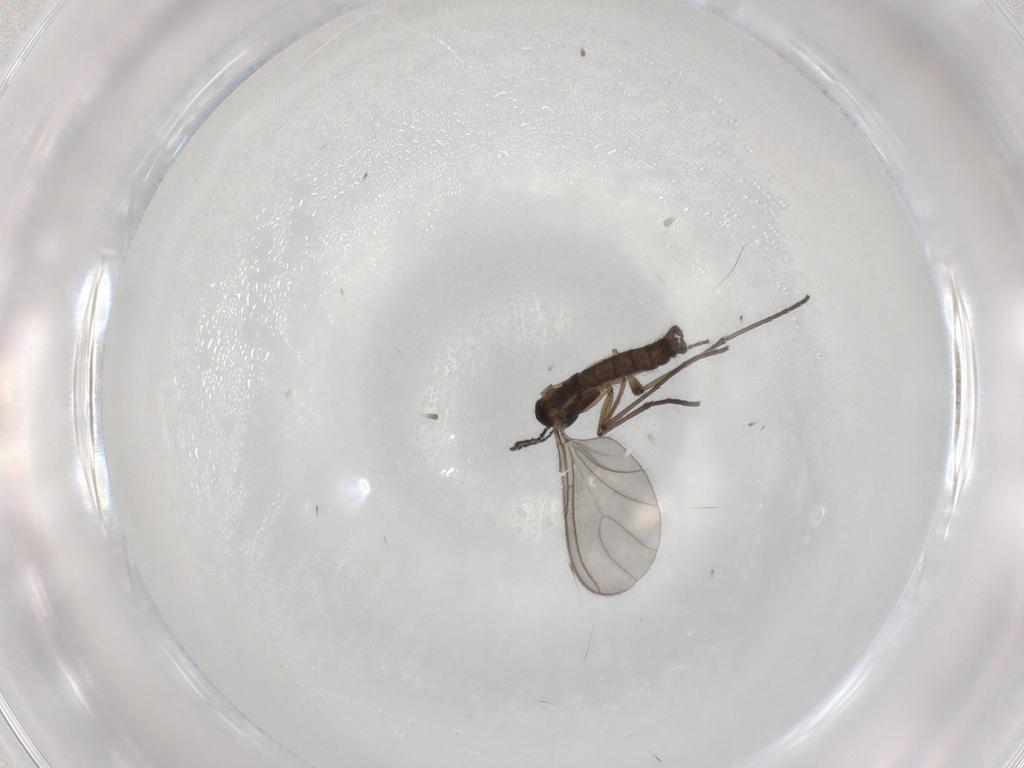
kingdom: Animalia
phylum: Arthropoda
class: Insecta
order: Diptera
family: Sciaridae
